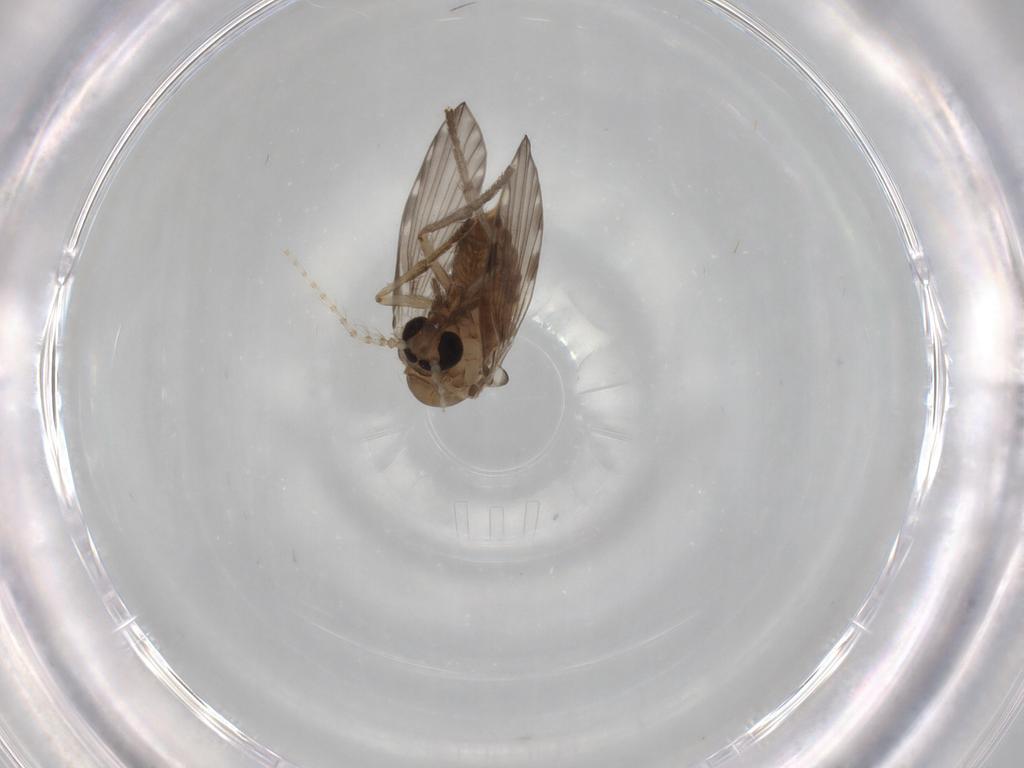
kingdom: Animalia
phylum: Arthropoda
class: Insecta
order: Diptera
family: Psychodidae
